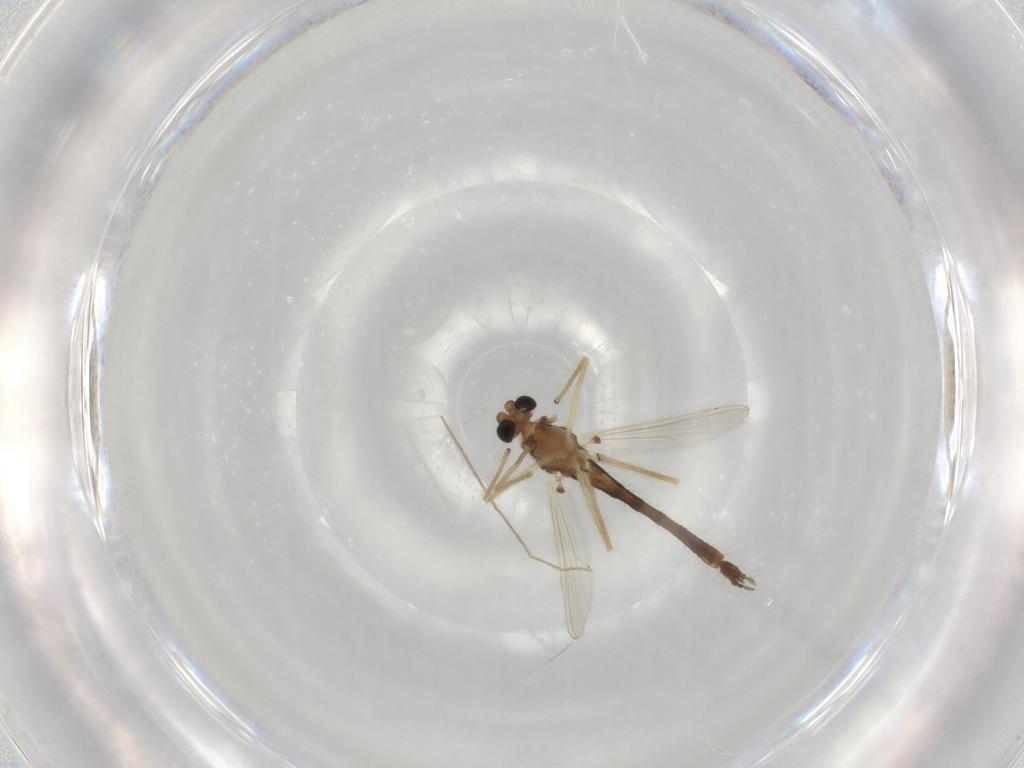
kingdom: Animalia
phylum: Arthropoda
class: Insecta
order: Diptera
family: Chironomidae
